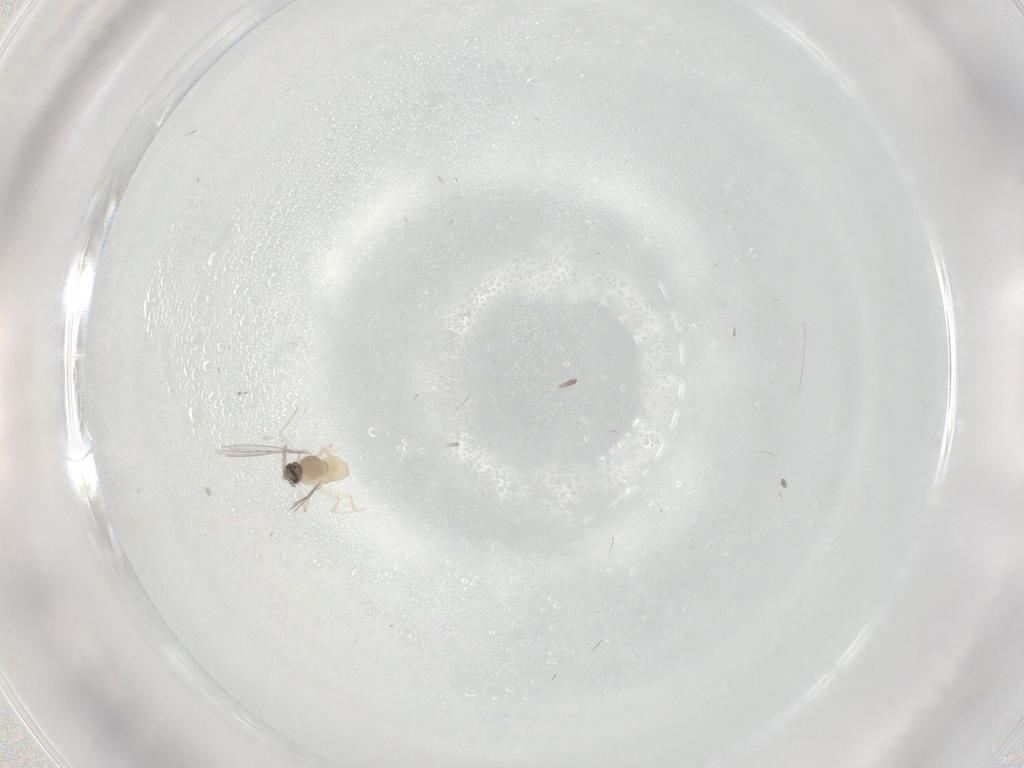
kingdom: Animalia
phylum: Arthropoda
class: Insecta
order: Diptera
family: Cecidomyiidae
